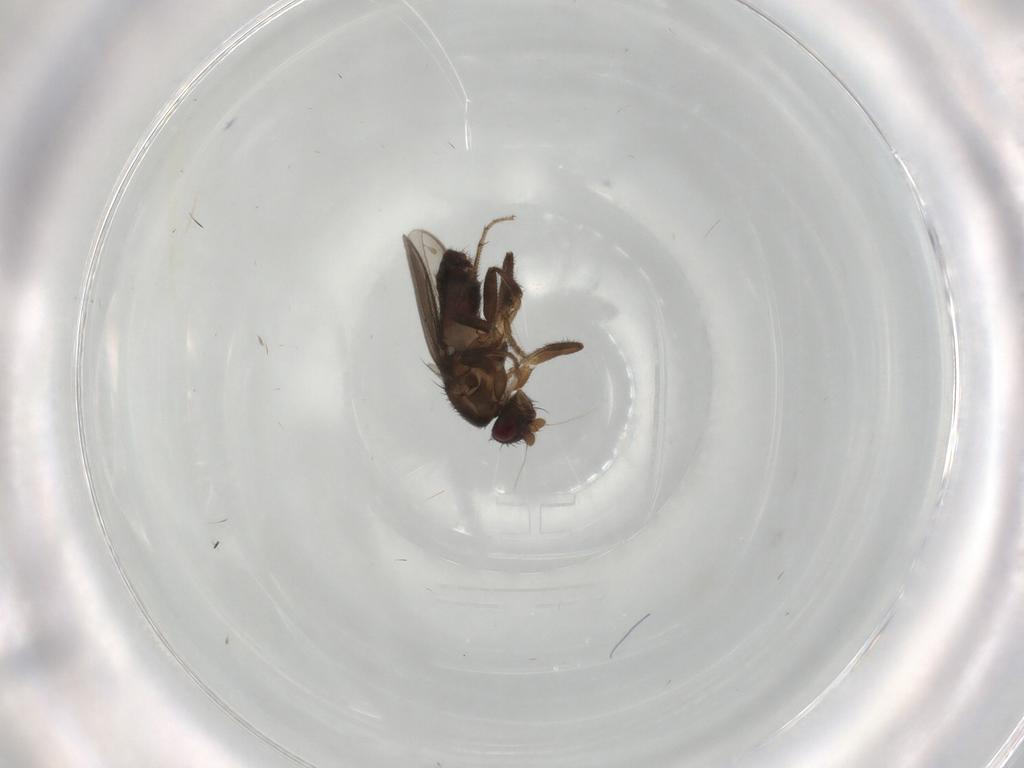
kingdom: Animalia
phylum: Arthropoda
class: Insecta
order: Diptera
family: Sphaeroceridae
